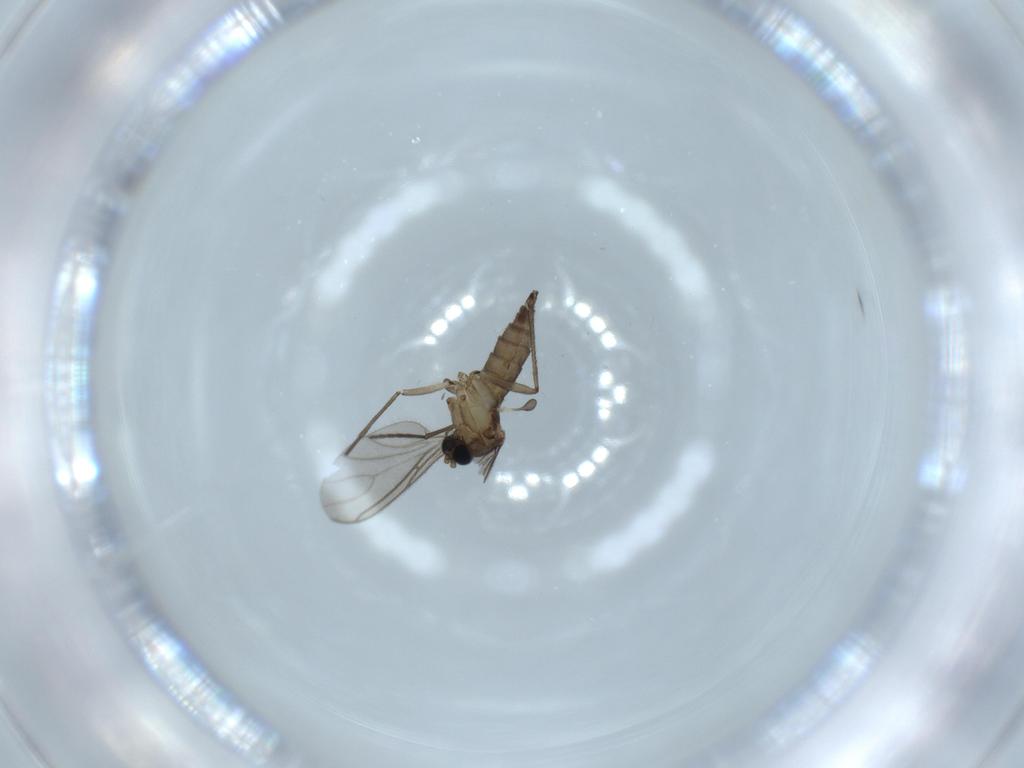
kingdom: Animalia
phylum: Arthropoda
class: Insecta
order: Diptera
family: Sciaridae
